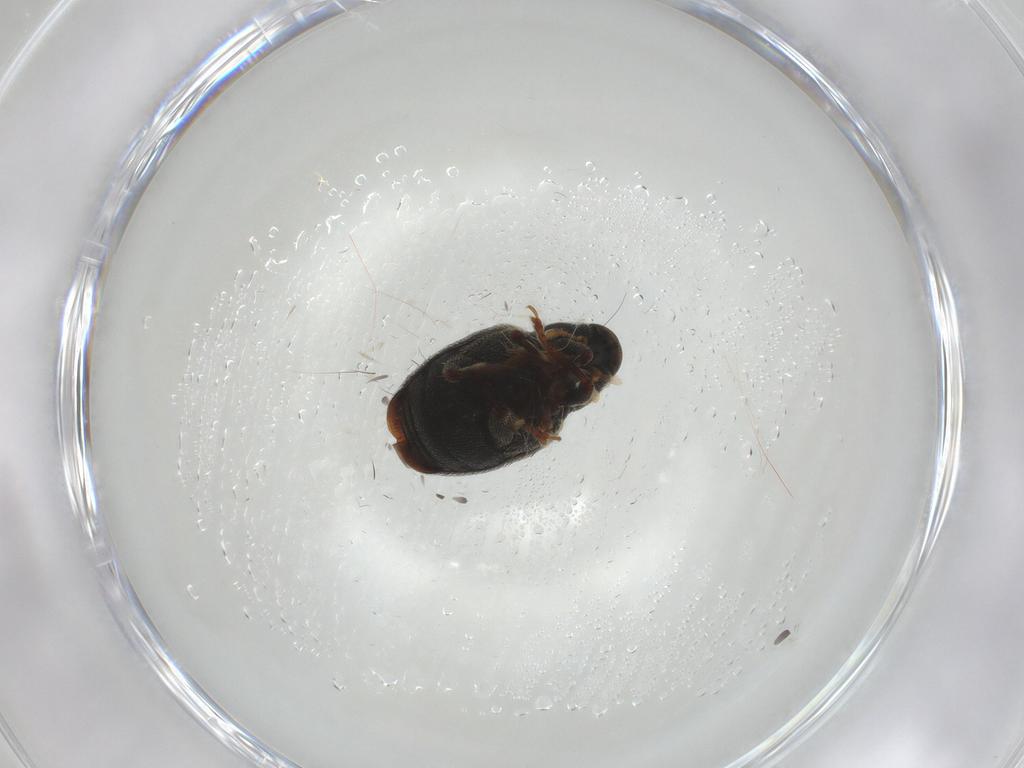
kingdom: Animalia
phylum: Arthropoda
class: Insecta
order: Coleoptera
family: Ptilodactylidae
